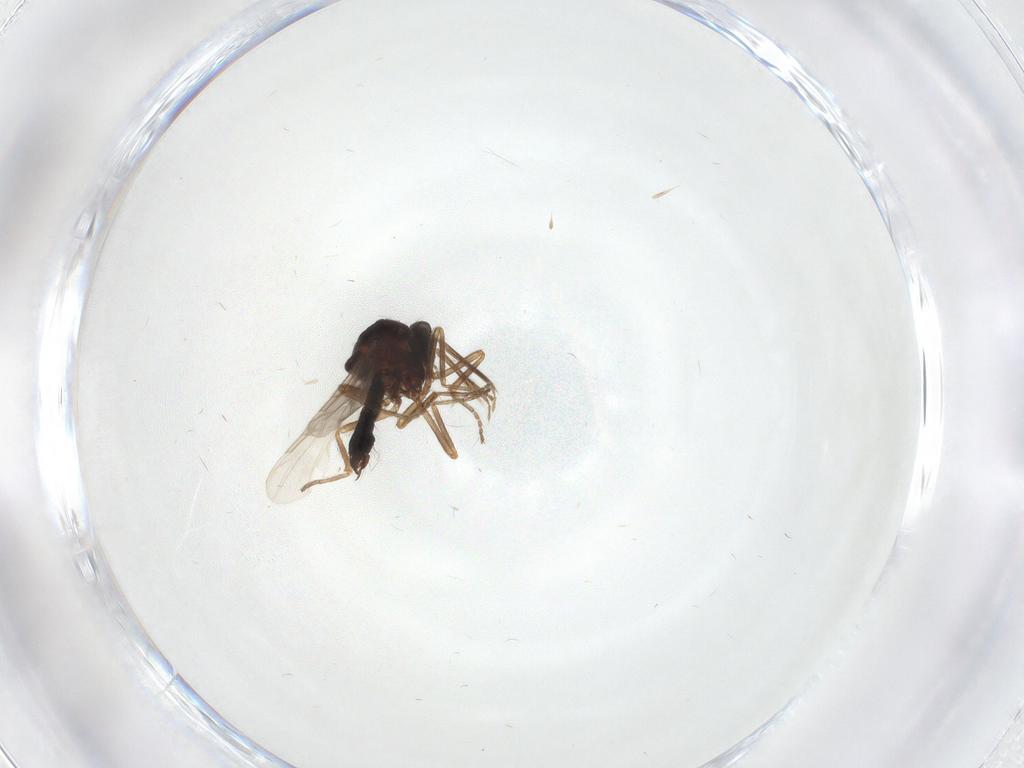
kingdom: Animalia
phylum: Arthropoda
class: Insecta
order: Diptera
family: Ceratopogonidae
